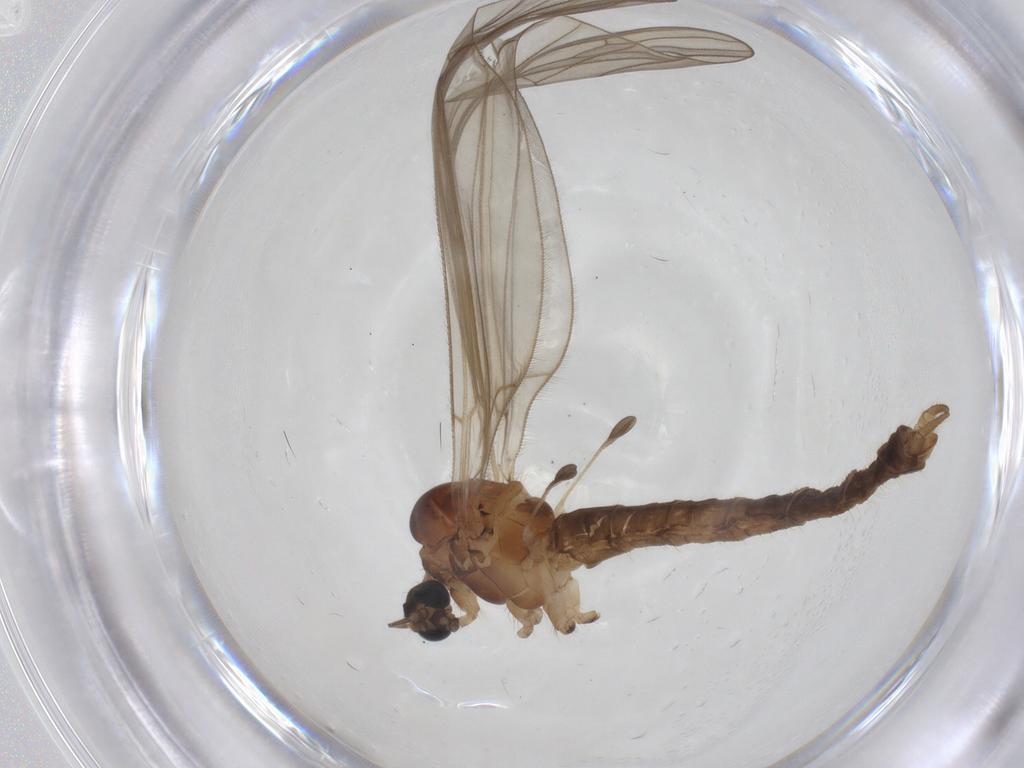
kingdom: Animalia
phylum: Arthropoda
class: Insecta
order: Diptera
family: Trichoceridae
